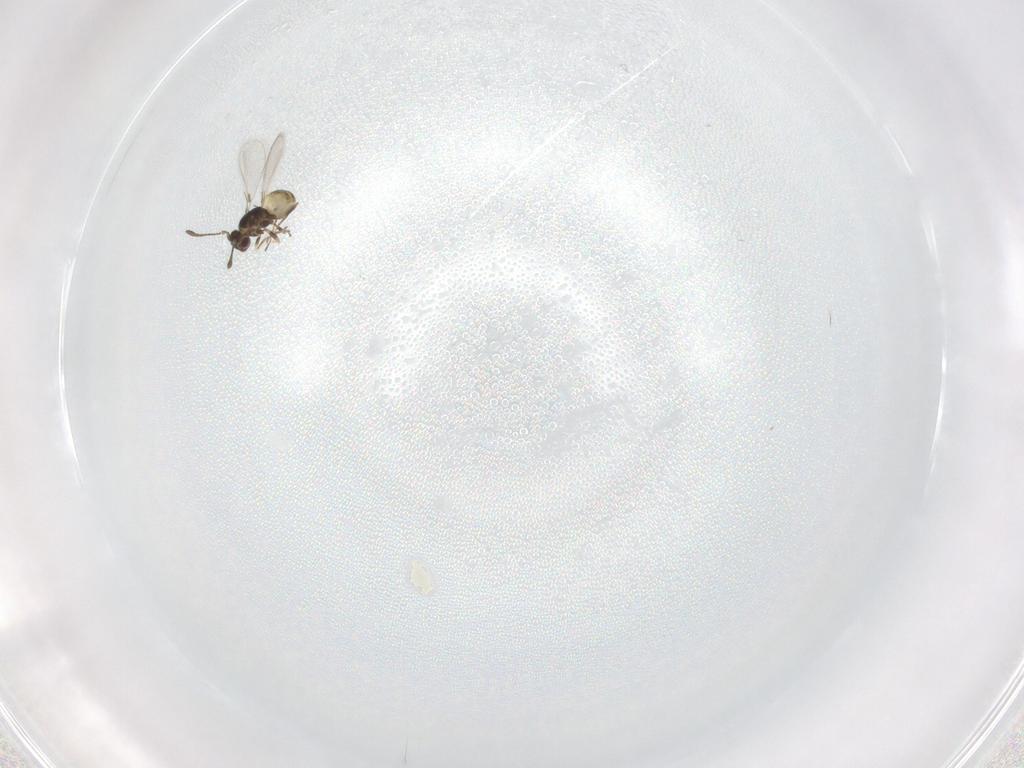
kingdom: Animalia
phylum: Arthropoda
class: Insecta
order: Hymenoptera
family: Mymaridae
